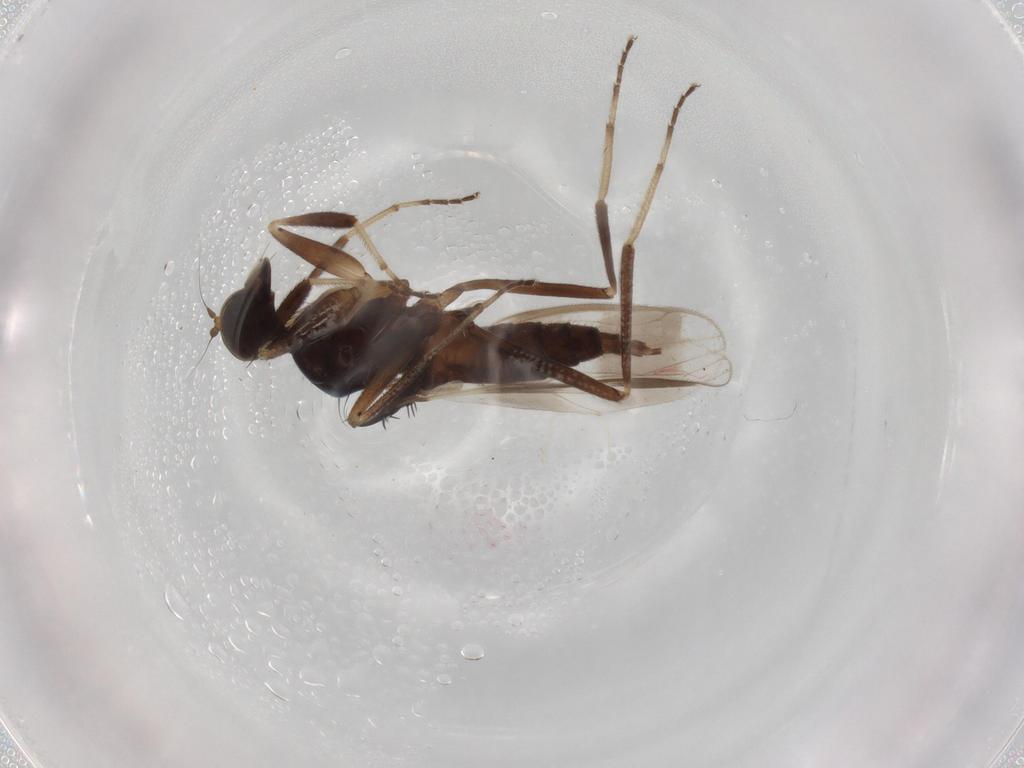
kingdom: Animalia
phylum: Arthropoda
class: Insecta
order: Diptera
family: Hybotidae
